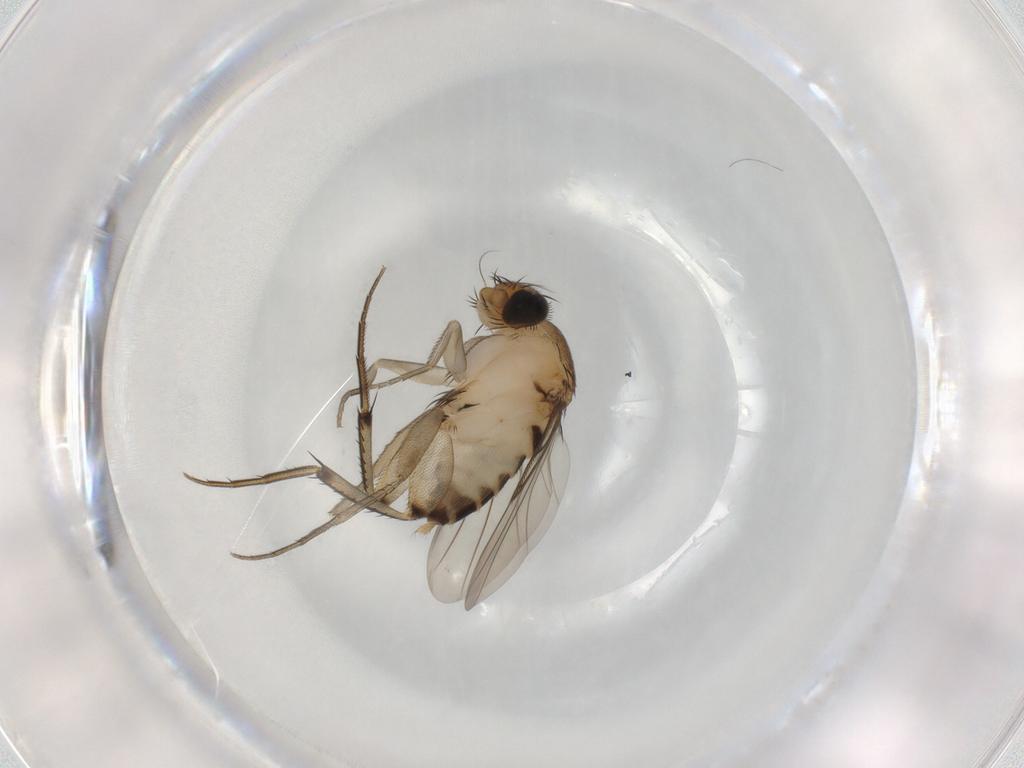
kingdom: Animalia
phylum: Arthropoda
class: Insecta
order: Diptera
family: Phoridae
